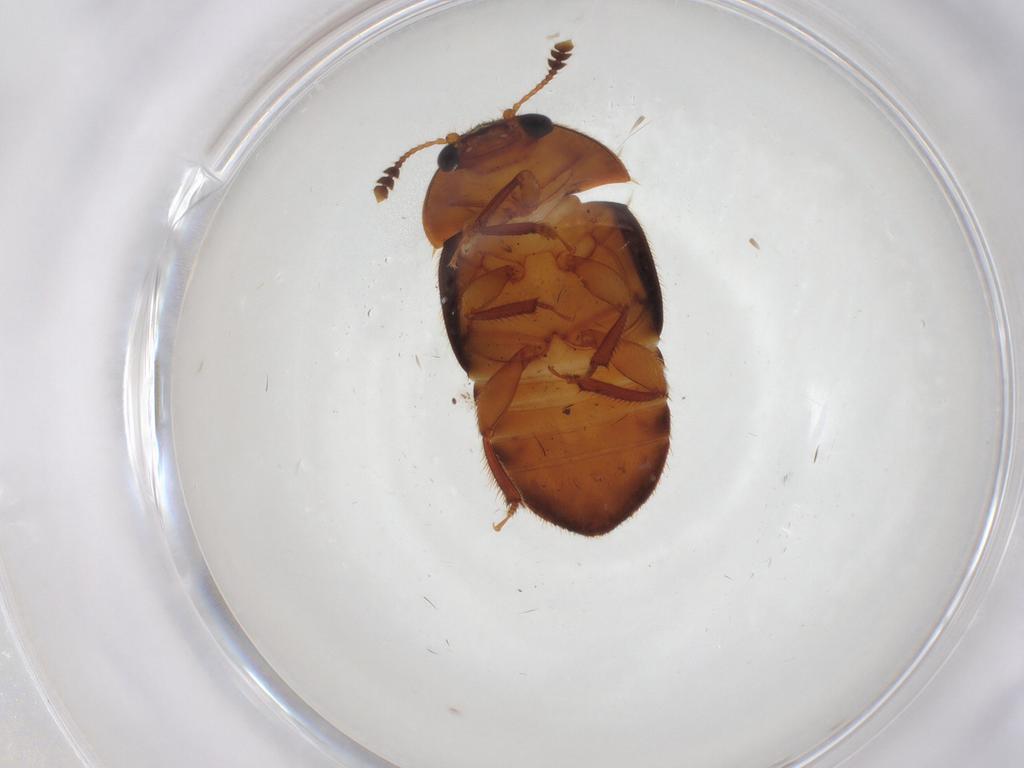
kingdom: Animalia
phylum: Arthropoda
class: Insecta
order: Coleoptera
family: Nitidulidae
